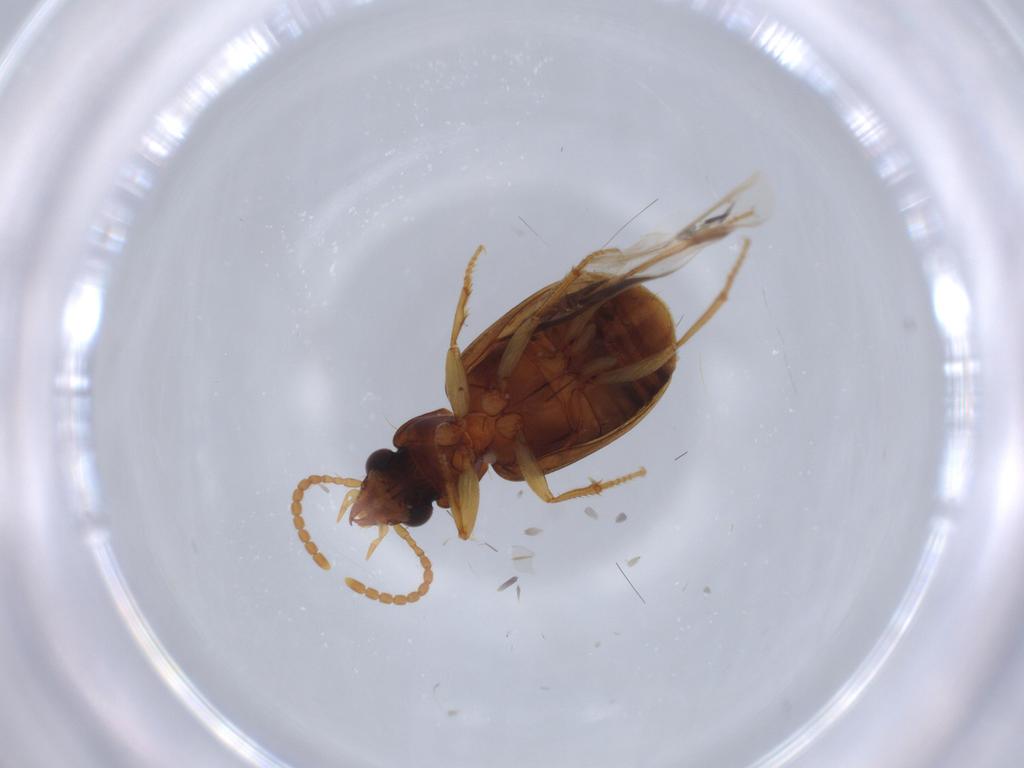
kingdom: Animalia
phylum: Arthropoda
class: Insecta
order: Coleoptera
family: Carabidae
